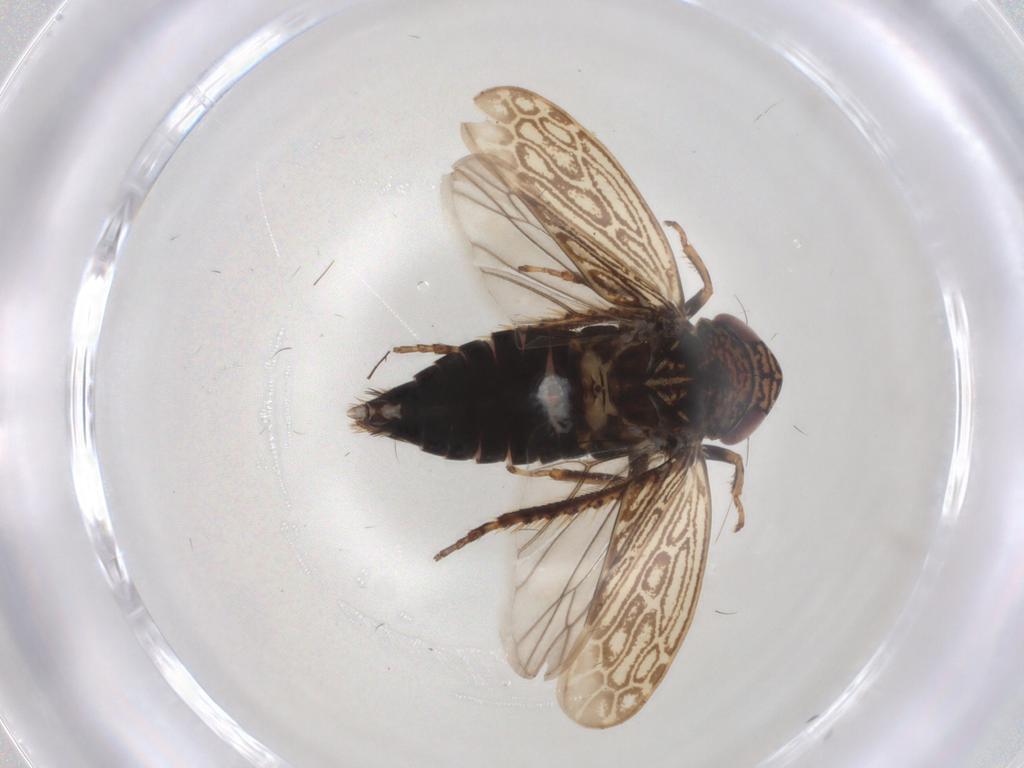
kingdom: Animalia
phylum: Arthropoda
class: Insecta
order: Hemiptera
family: Cicadellidae
